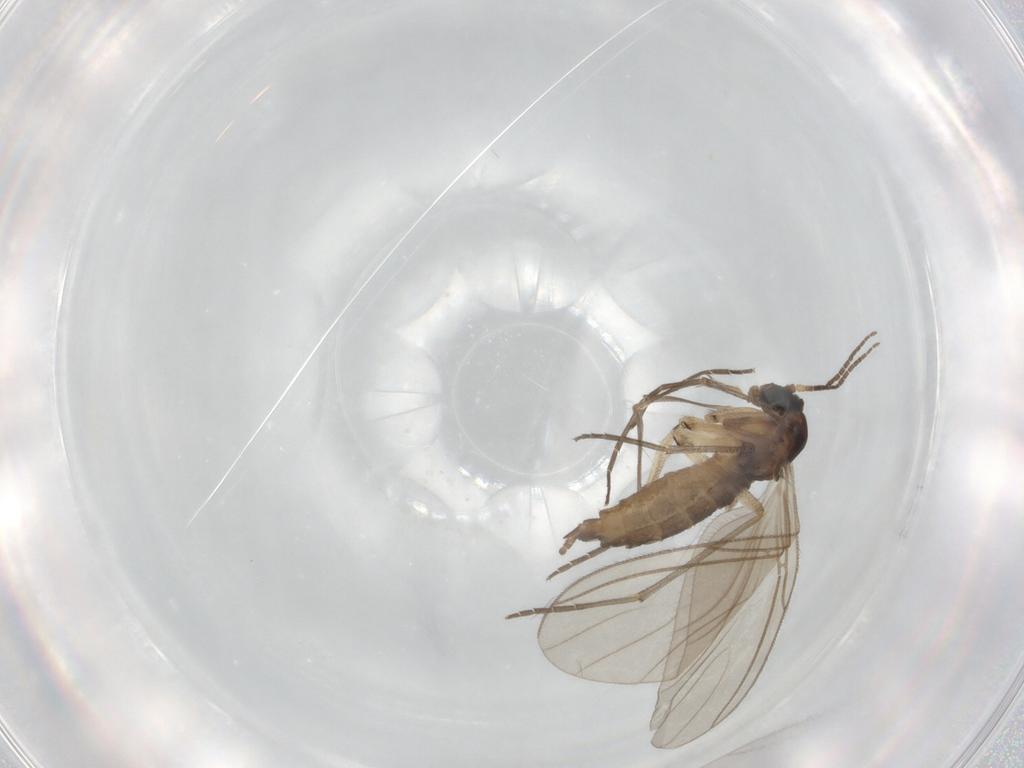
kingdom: Animalia
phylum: Arthropoda
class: Insecta
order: Diptera
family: Sciaridae
